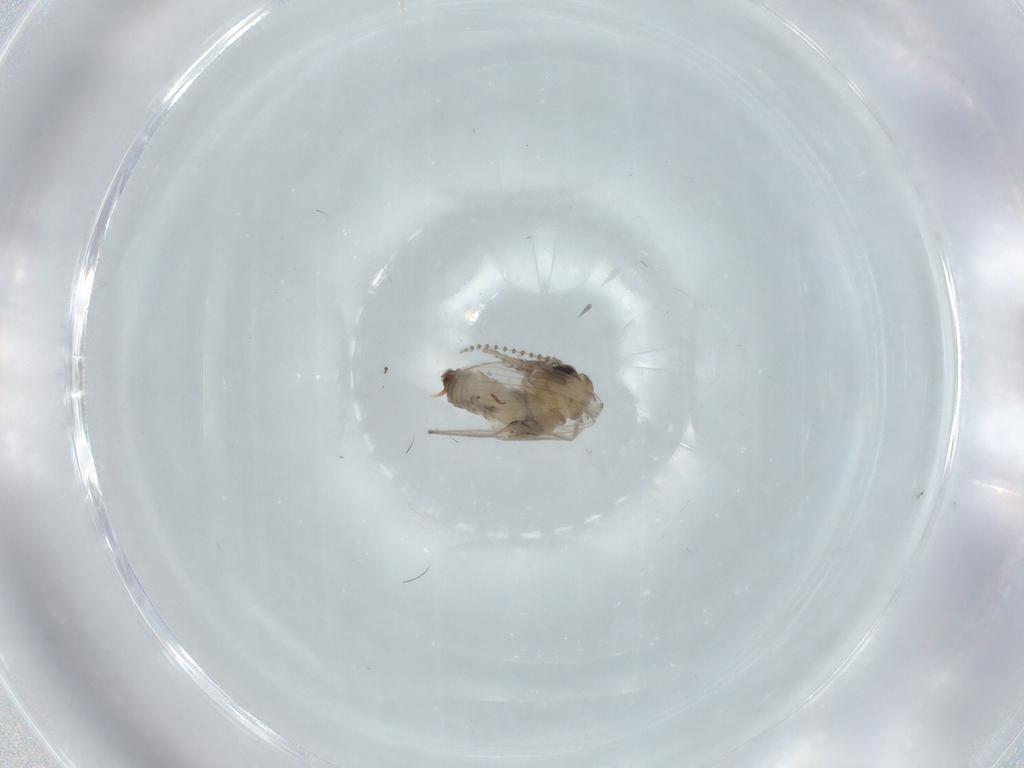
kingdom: Animalia
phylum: Arthropoda
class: Insecta
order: Diptera
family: Psychodidae
